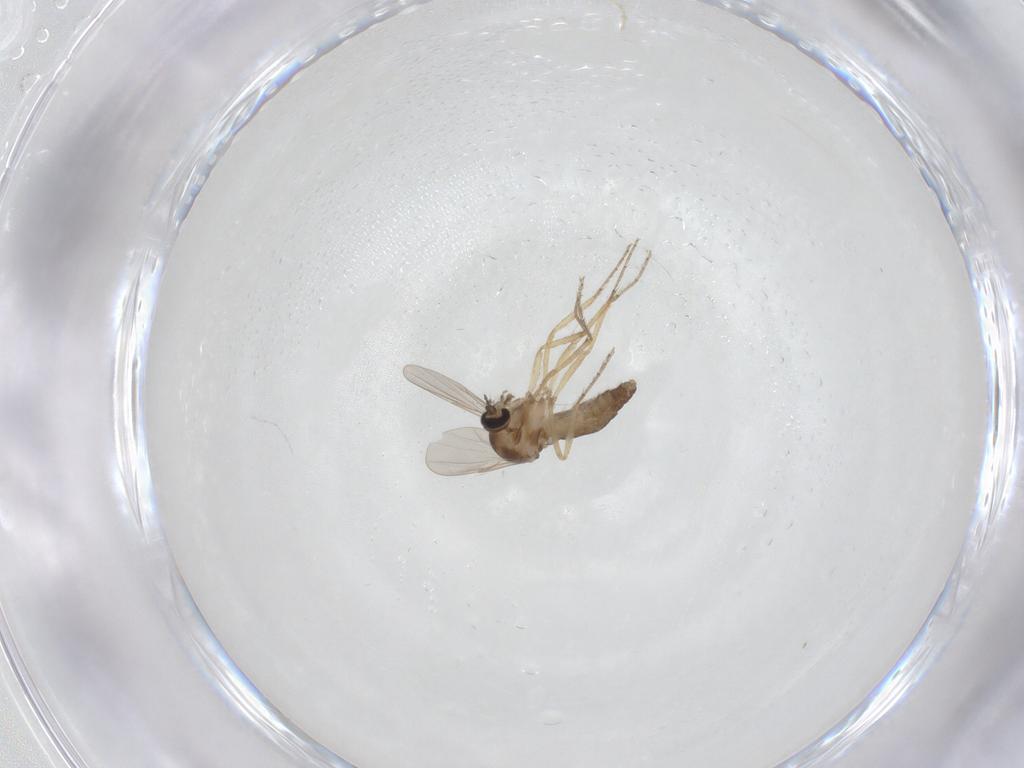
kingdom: Animalia
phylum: Arthropoda
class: Insecta
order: Diptera
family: Ceratopogonidae
